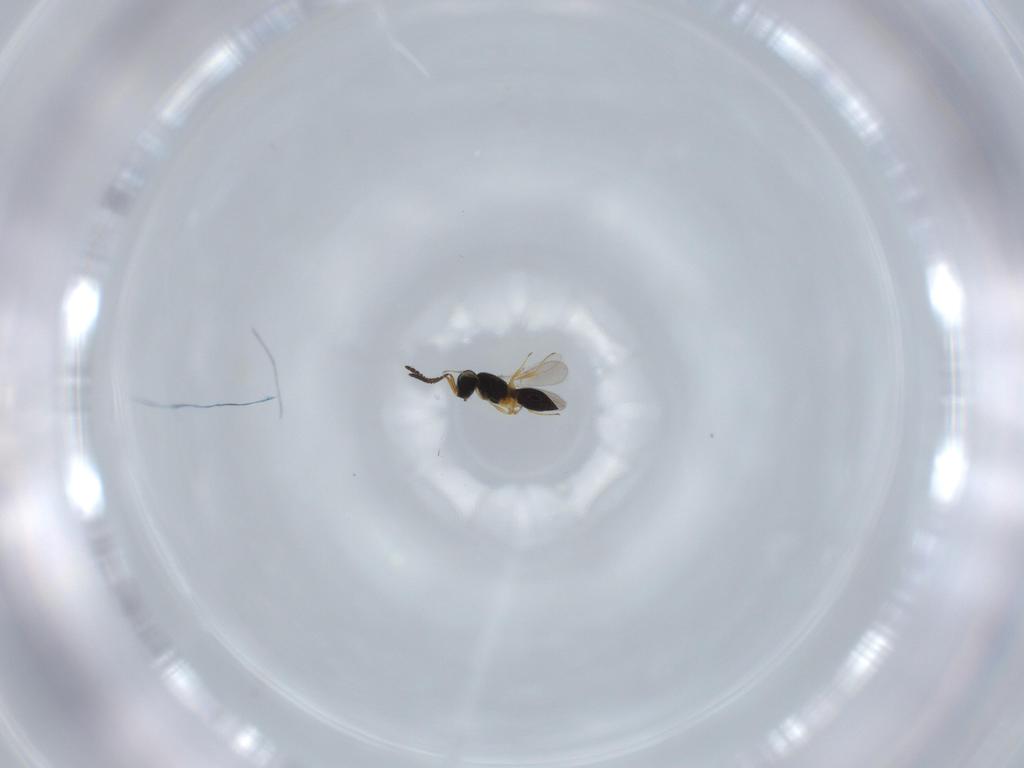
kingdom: Animalia
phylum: Arthropoda
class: Insecta
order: Hymenoptera
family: Scelionidae
